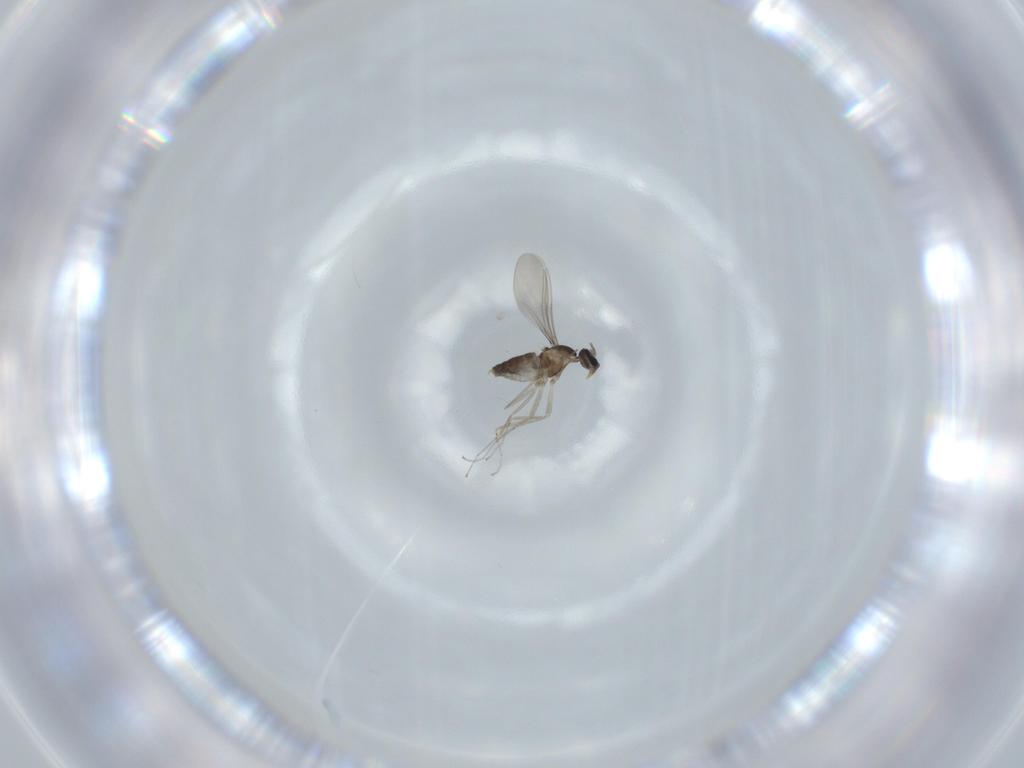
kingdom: Animalia
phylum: Arthropoda
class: Insecta
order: Diptera
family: Cecidomyiidae
